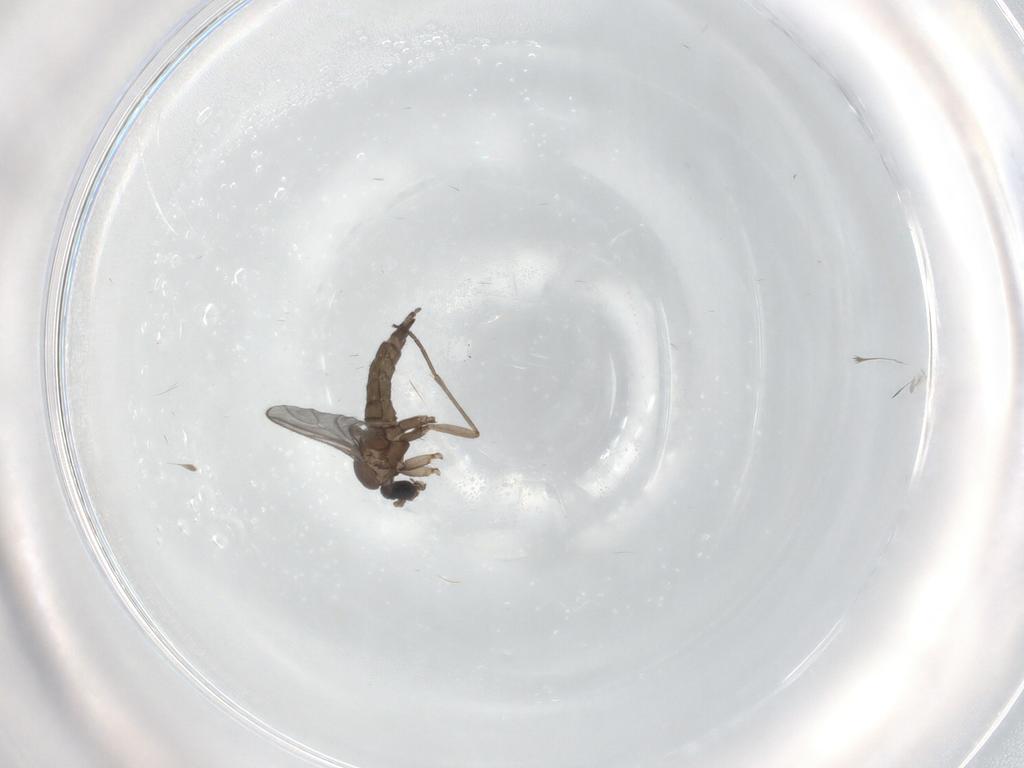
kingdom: Animalia
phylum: Arthropoda
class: Insecta
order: Diptera
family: Sciaridae
